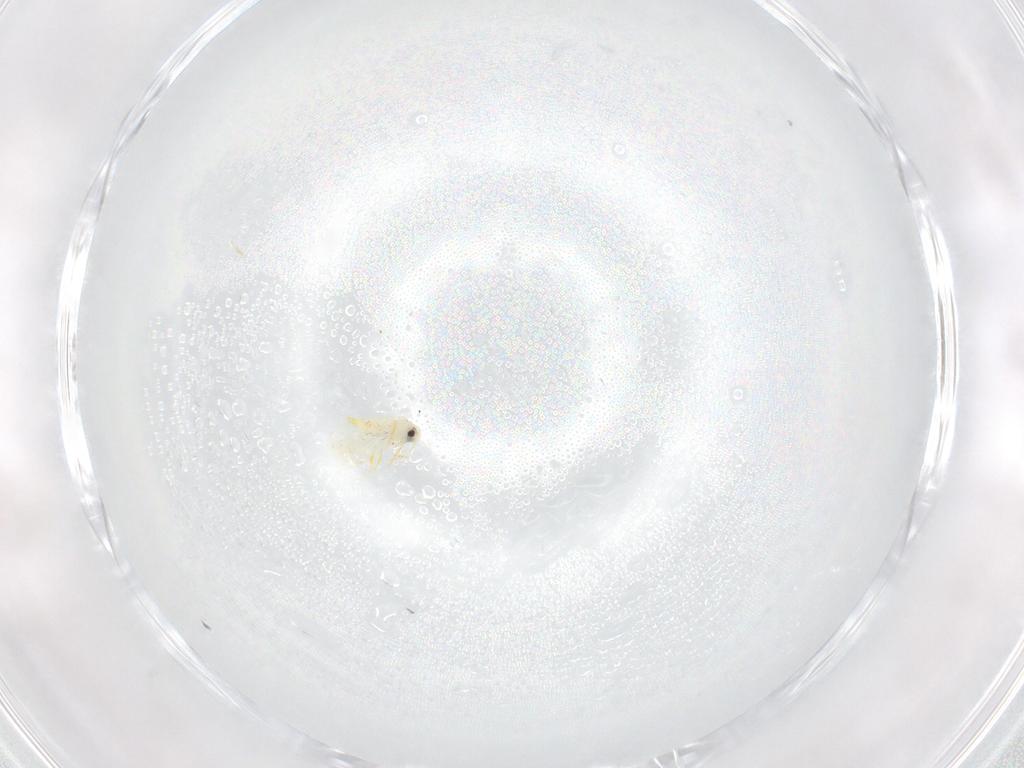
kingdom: Animalia
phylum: Arthropoda
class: Insecta
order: Hemiptera
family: Aleyrodidae
